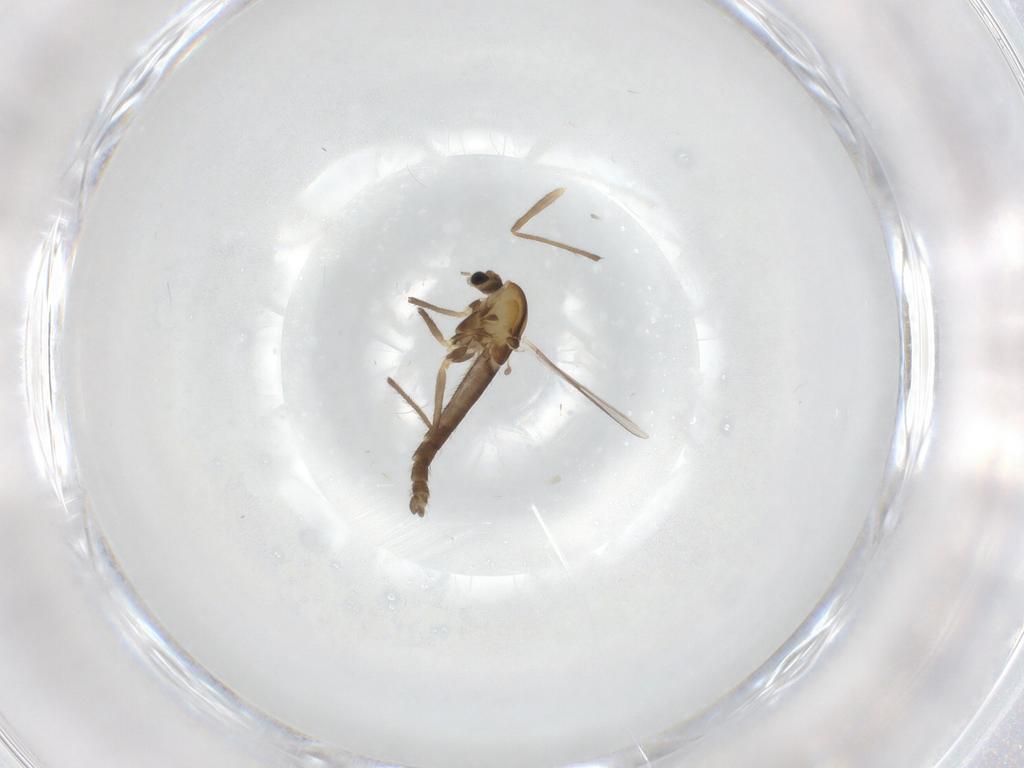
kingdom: Animalia
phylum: Arthropoda
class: Insecta
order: Diptera
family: Chironomidae
